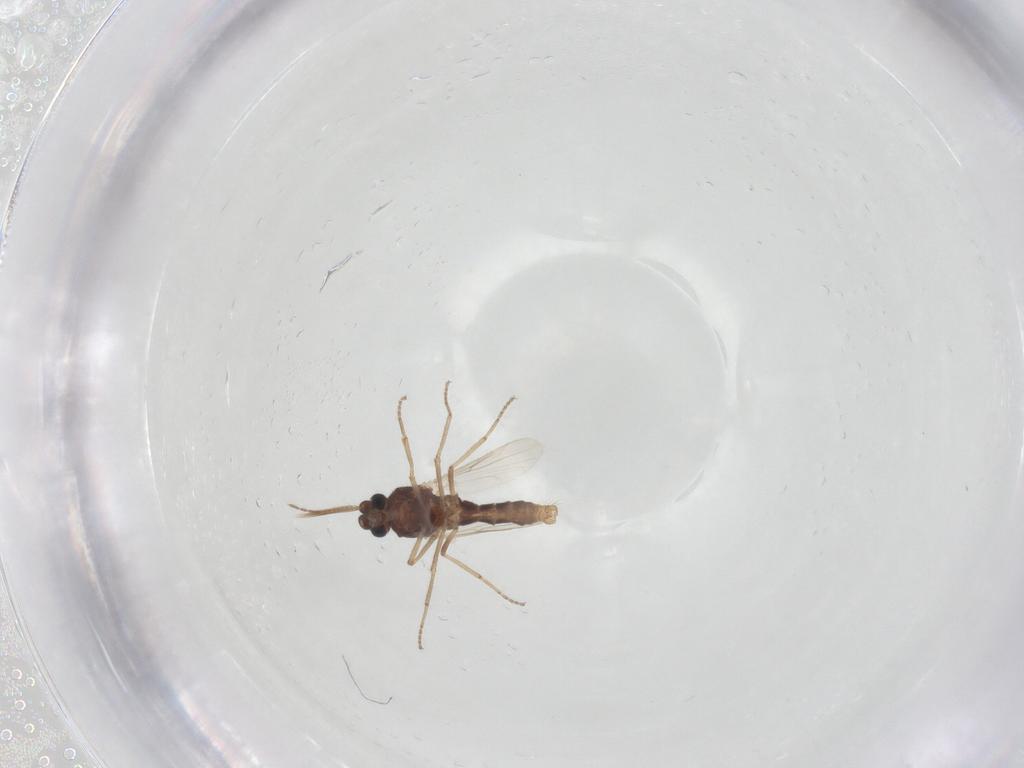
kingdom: Animalia
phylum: Arthropoda
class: Insecta
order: Diptera
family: Ceratopogonidae
